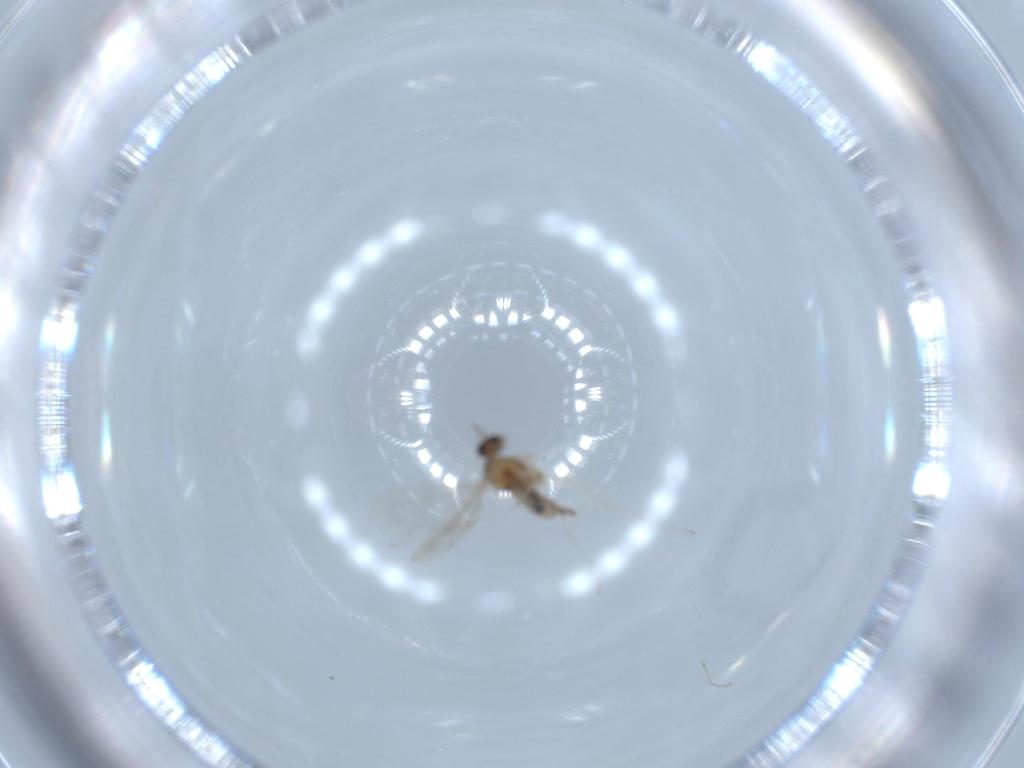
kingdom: Animalia
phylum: Arthropoda
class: Insecta
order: Diptera
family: Cecidomyiidae
